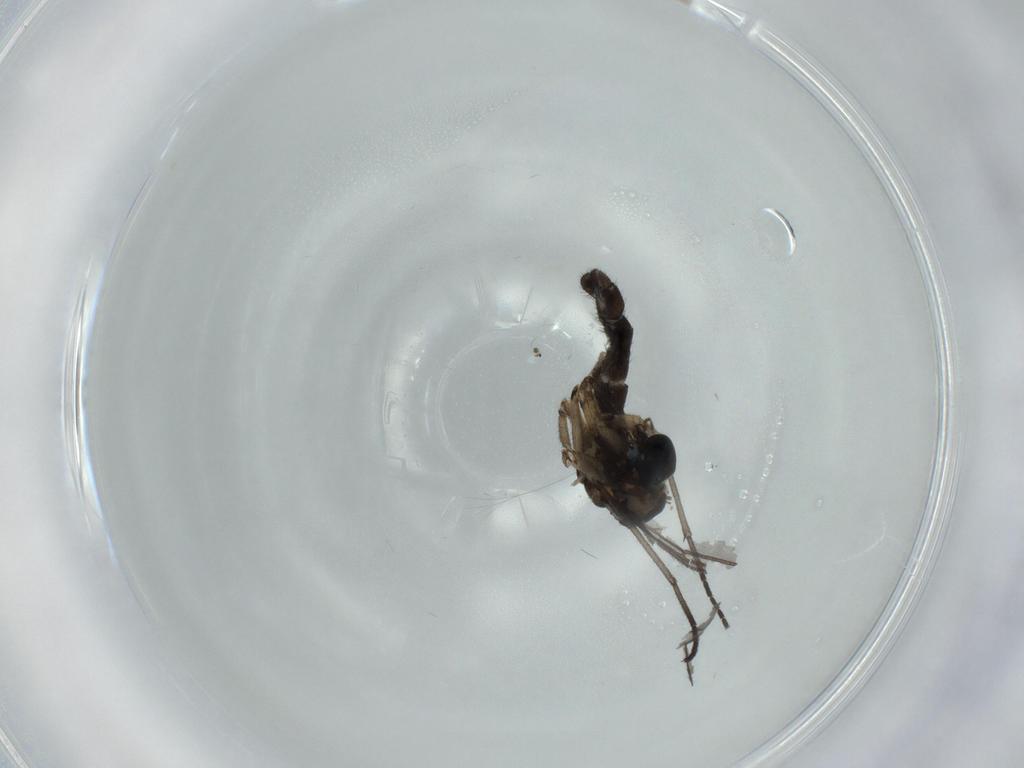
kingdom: Animalia
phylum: Arthropoda
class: Insecta
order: Diptera
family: Sciaridae
